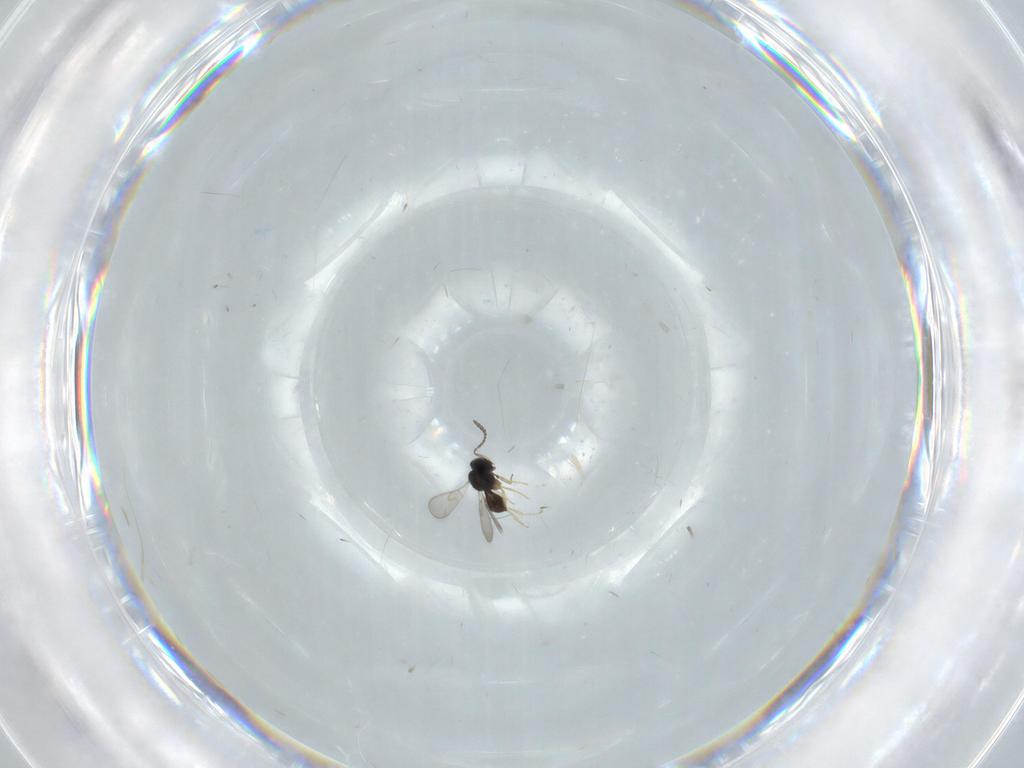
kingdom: Animalia
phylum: Arthropoda
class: Insecta
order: Hymenoptera
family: Scelionidae
